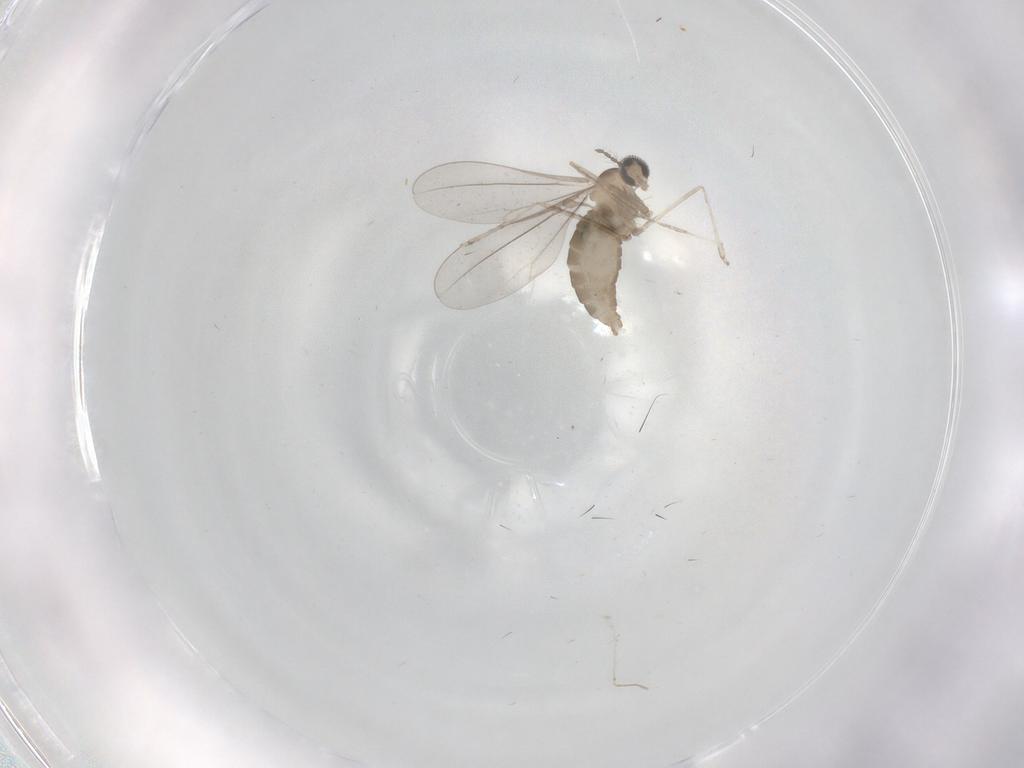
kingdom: Animalia
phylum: Arthropoda
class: Insecta
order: Diptera
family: Cecidomyiidae
